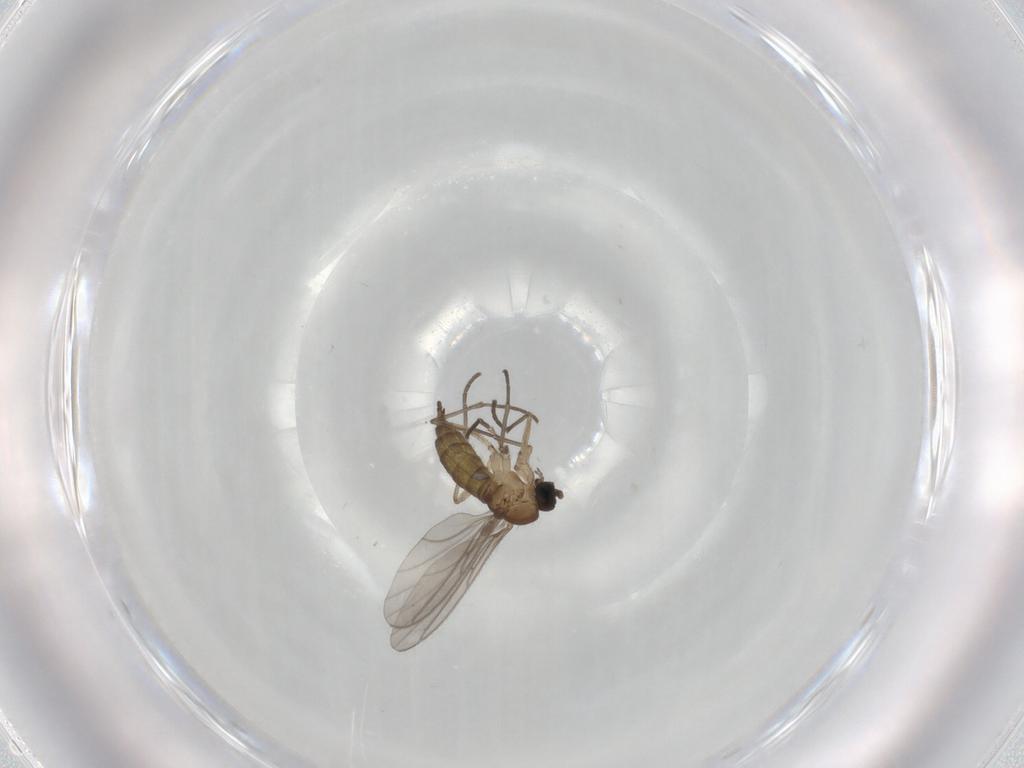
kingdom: Animalia
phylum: Arthropoda
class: Insecta
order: Diptera
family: Sciaridae
